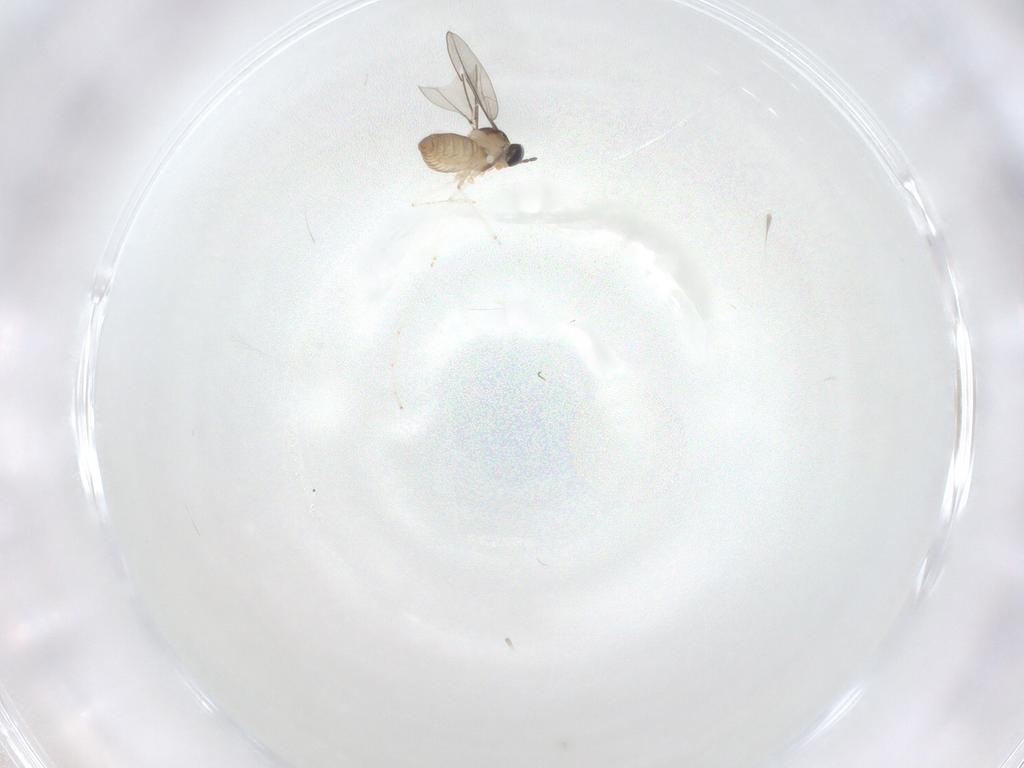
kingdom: Animalia
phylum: Arthropoda
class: Insecta
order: Diptera
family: Cecidomyiidae
